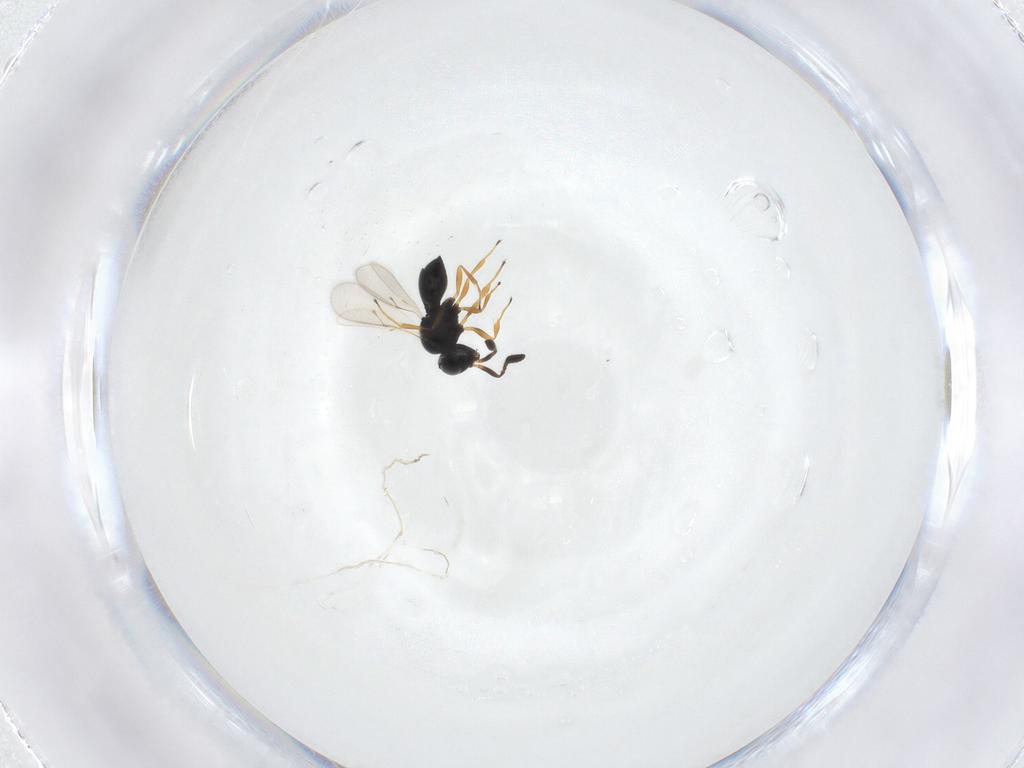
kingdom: Animalia
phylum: Arthropoda
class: Insecta
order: Hymenoptera
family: Scelionidae
